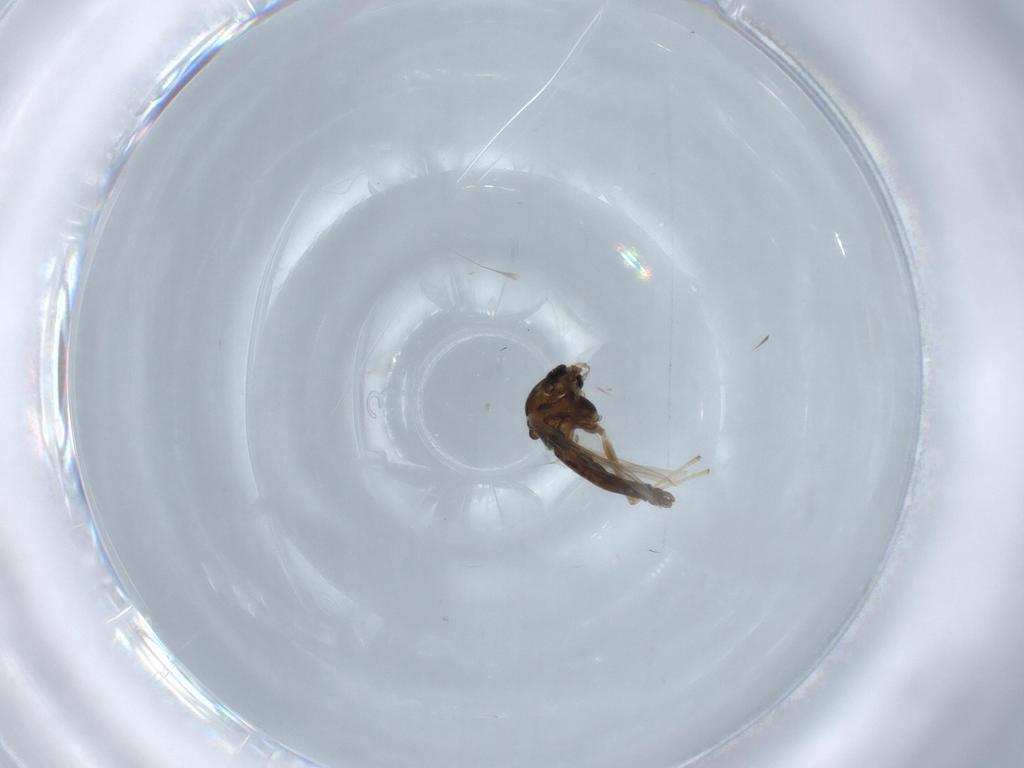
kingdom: Animalia
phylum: Arthropoda
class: Insecta
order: Diptera
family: Chironomidae
